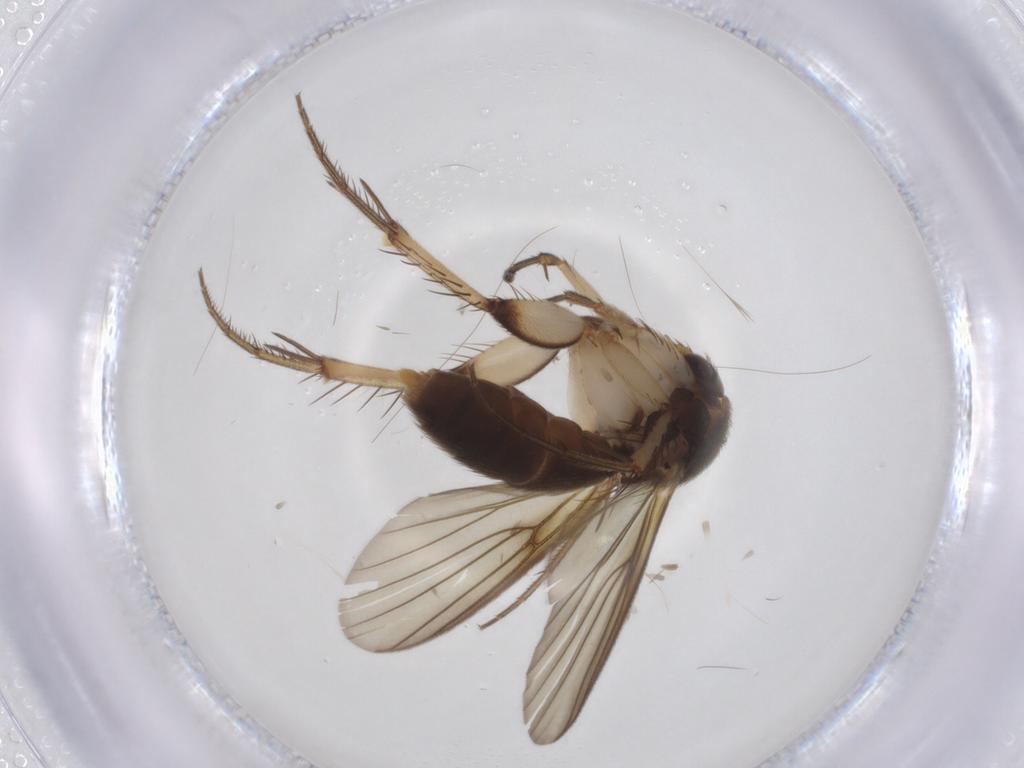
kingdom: Animalia
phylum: Arthropoda
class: Insecta
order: Diptera
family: Mycetophilidae
